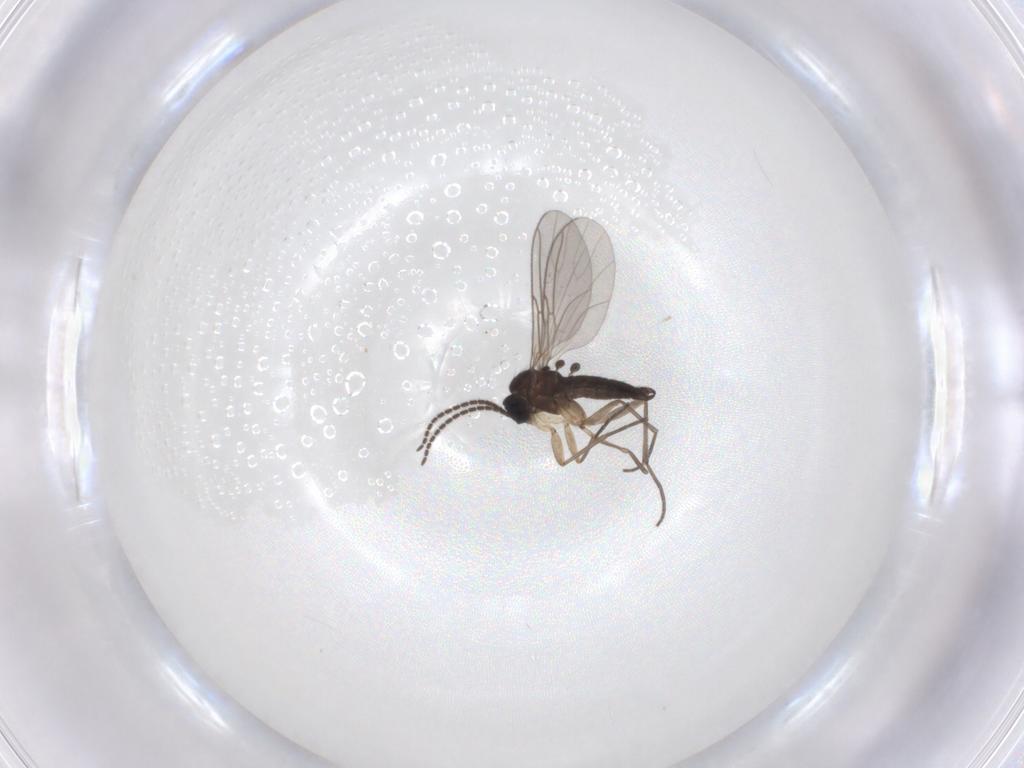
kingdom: Animalia
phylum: Arthropoda
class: Insecta
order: Diptera
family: Sciaridae
